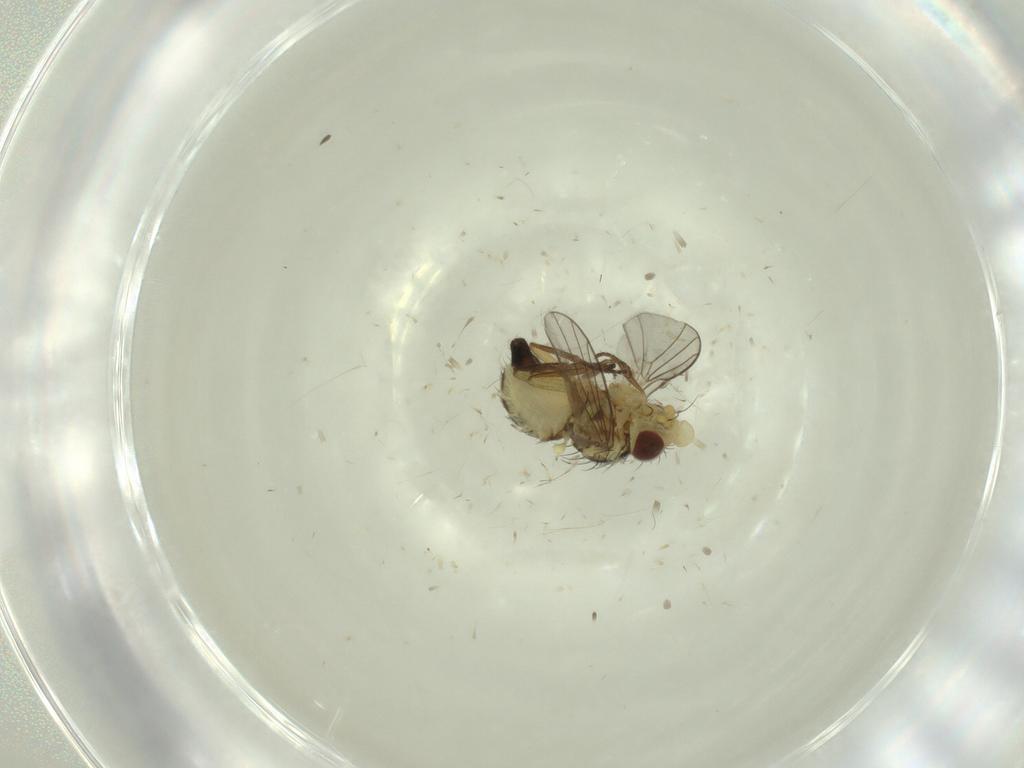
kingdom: Animalia
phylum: Arthropoda
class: Insecta
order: Diptera
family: Agromyzidae
